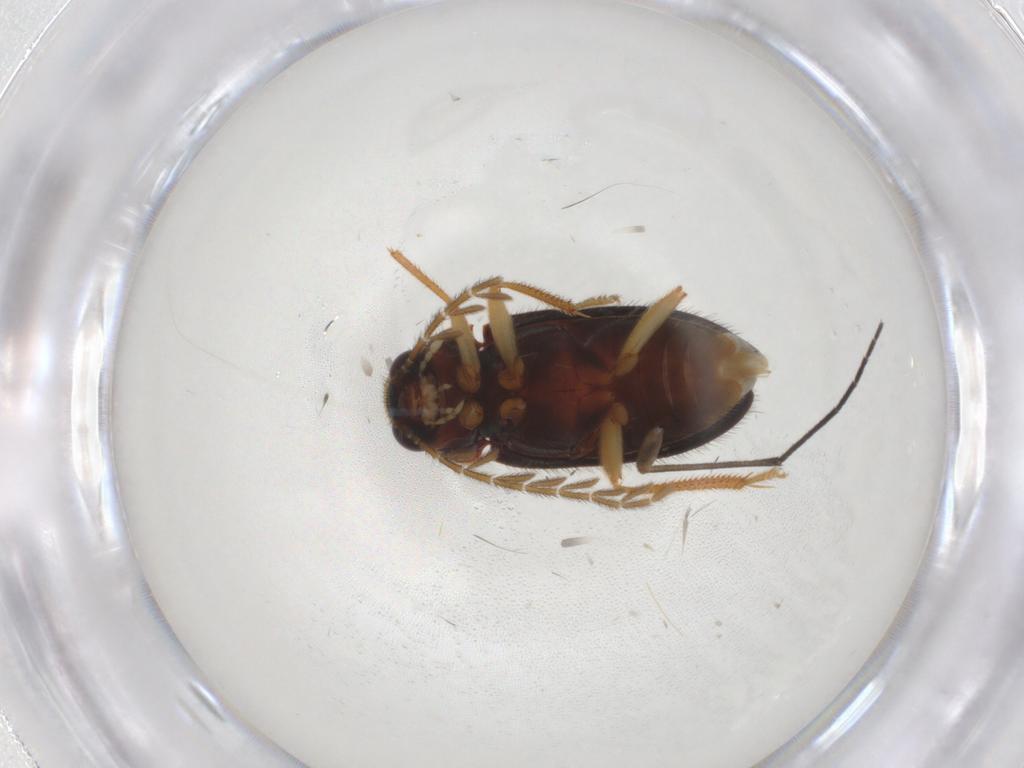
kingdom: Animalia
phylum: Arthropoda
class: Insecta
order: Coleoptera
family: Ptilodactylidae
